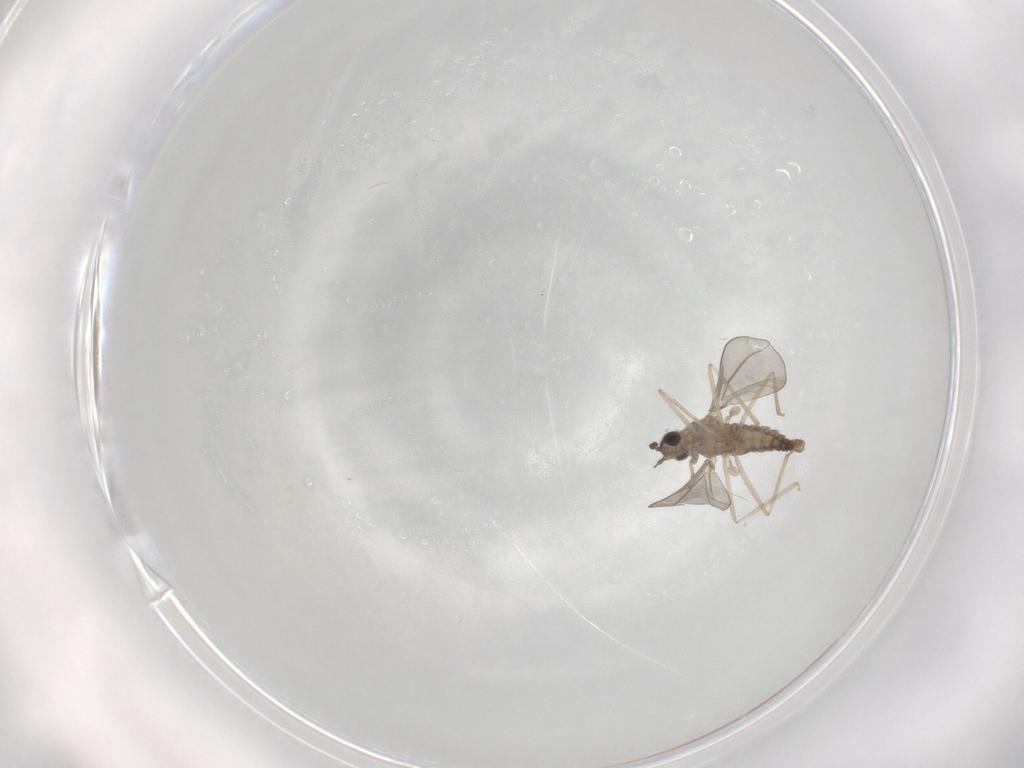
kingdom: Animalia
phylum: Arthropoda
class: Insecta
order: Diptera
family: Cecidomyiidae
